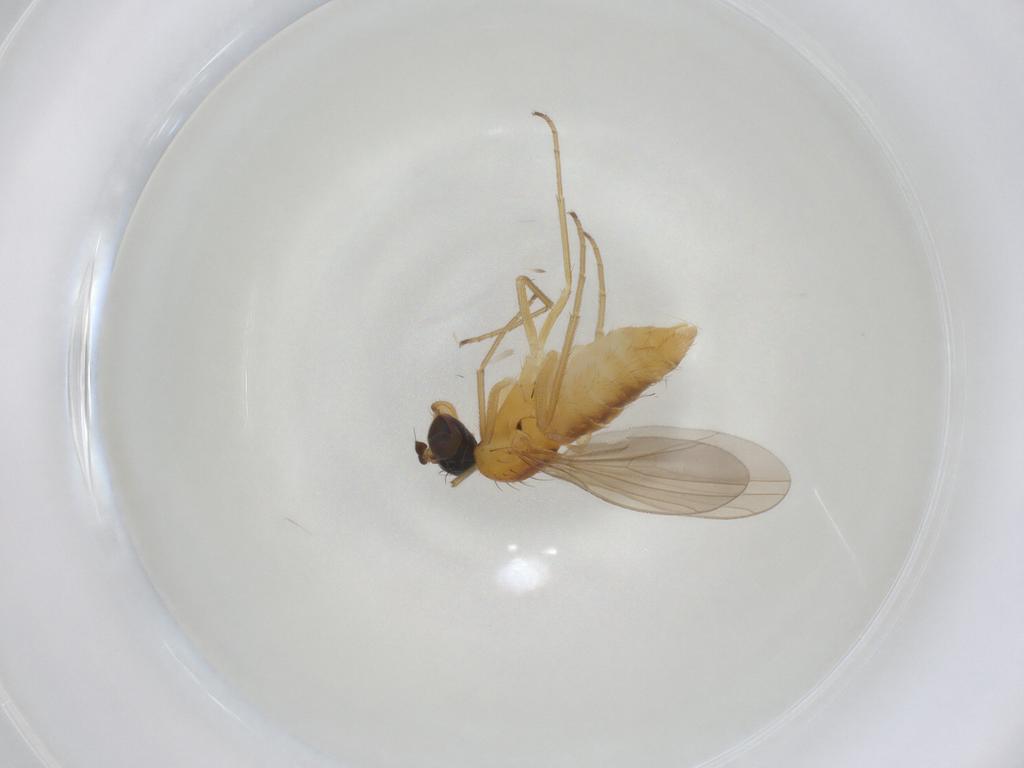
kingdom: Animalia
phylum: Arthropoda
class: Insecta
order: Diptera
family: Dolichopodidae
